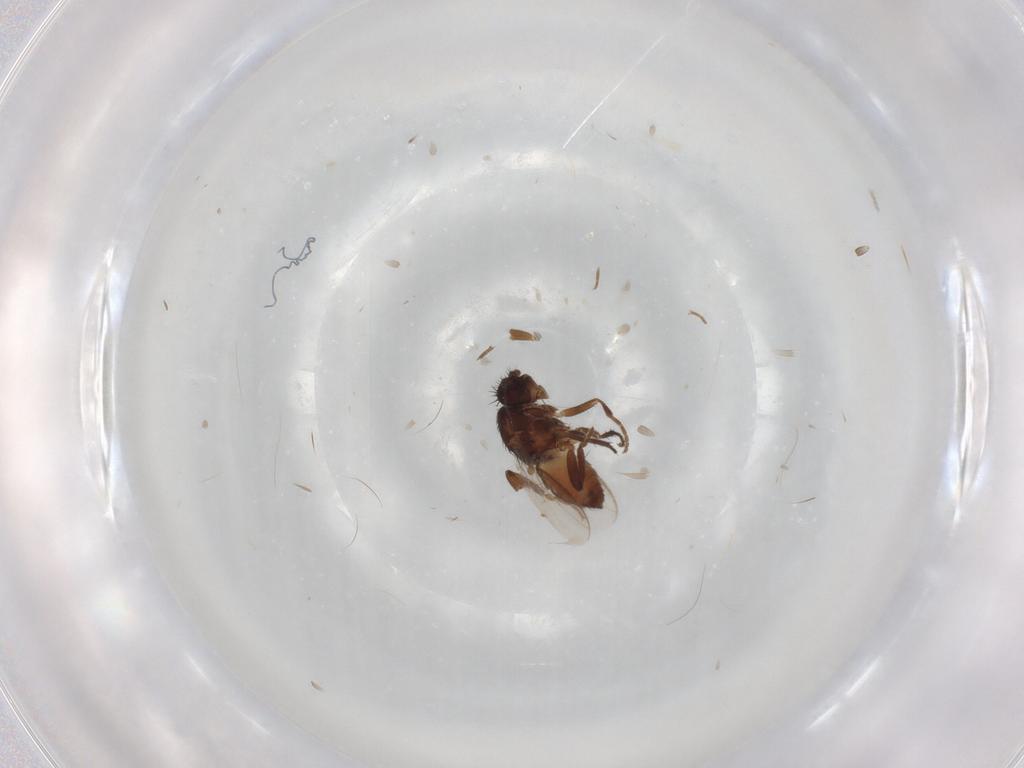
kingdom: Animalia
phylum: Arthropoda
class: Insecta
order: Diptera
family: Sphaeroceridae
